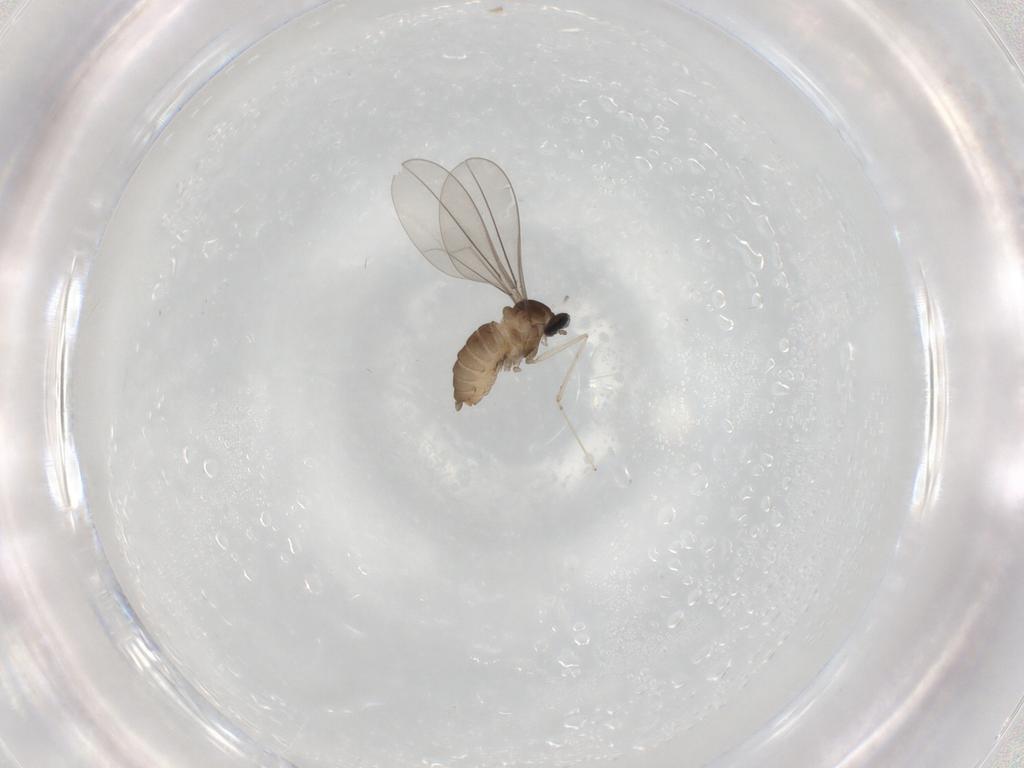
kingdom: Animalia
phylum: Arthropoda
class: Insecta
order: Diptera
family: Cecidomyiidae
